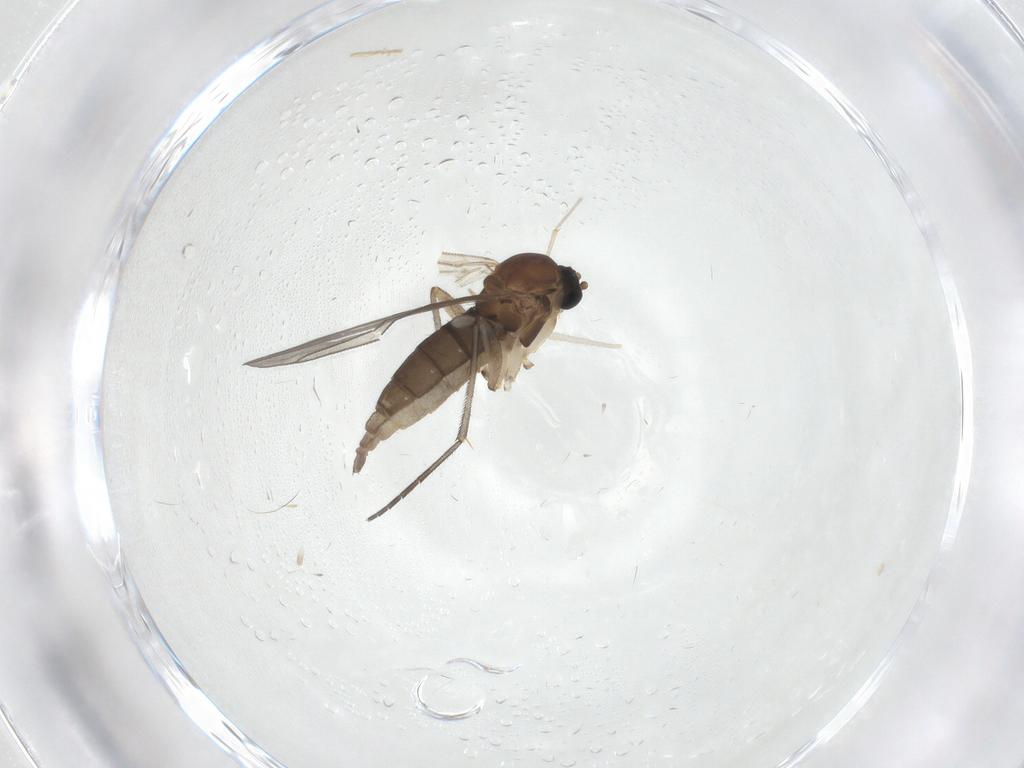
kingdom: Animalia
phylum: Arthropoda
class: Insecta
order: Diptera
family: Sciaridae
